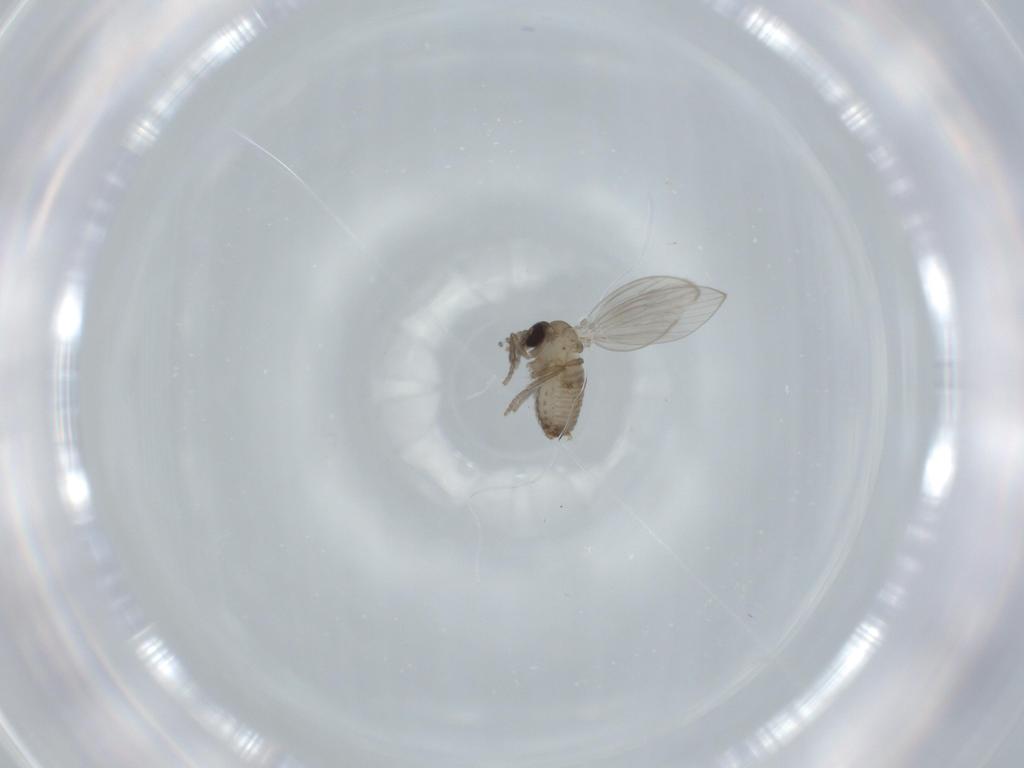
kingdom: Animalia
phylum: Arthropoda
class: Insecta
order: Diptera
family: Psychodidae
